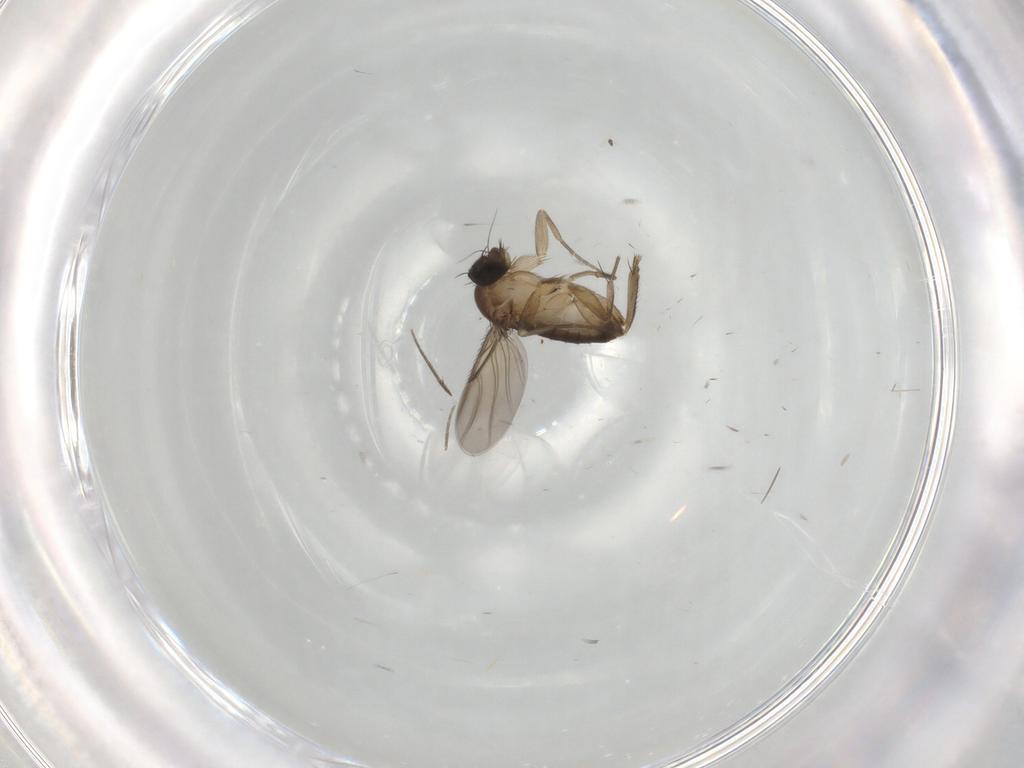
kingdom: Animalia
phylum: Arthropoda
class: Insecta
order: Diptera
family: Phoridae
